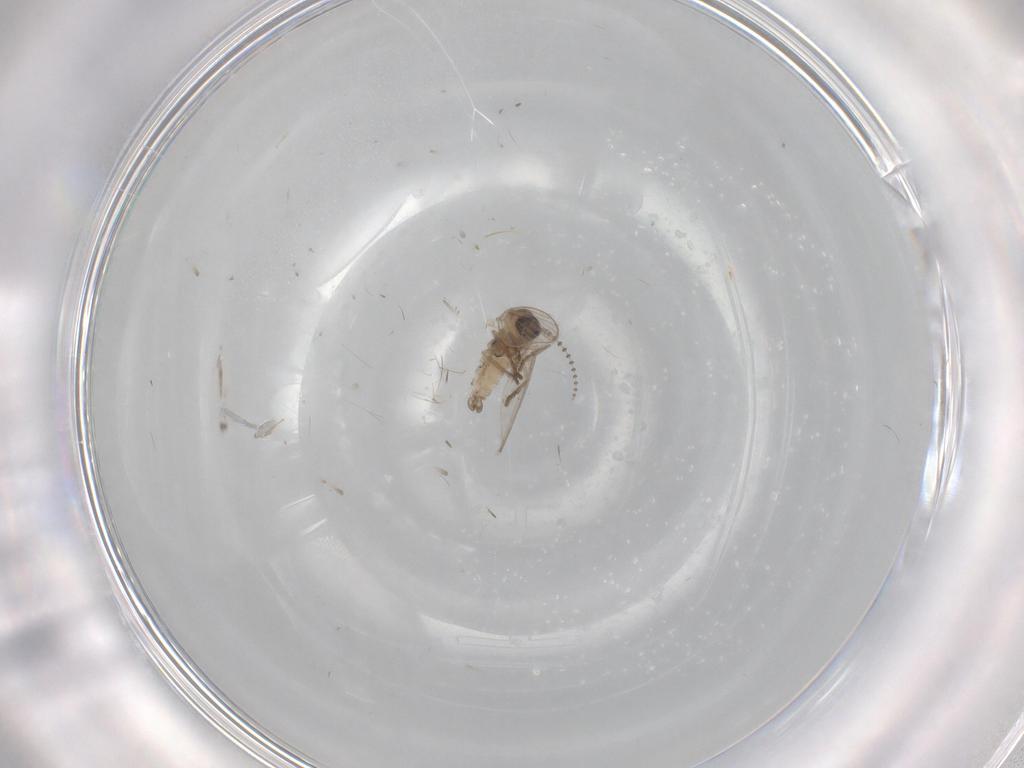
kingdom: Animalia
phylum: Arthropoda
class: Insecta
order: Diptera
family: Psychodidae
